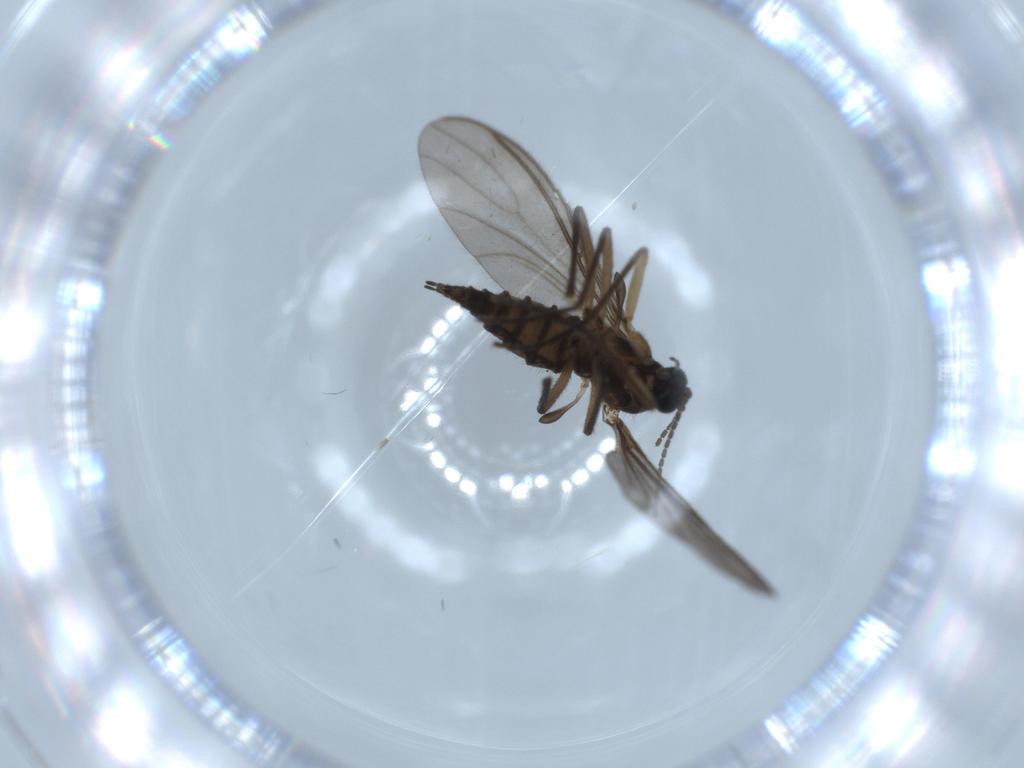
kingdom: Animalia
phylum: Arthropoda
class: Insecta
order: Diptera
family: Sciaridae
